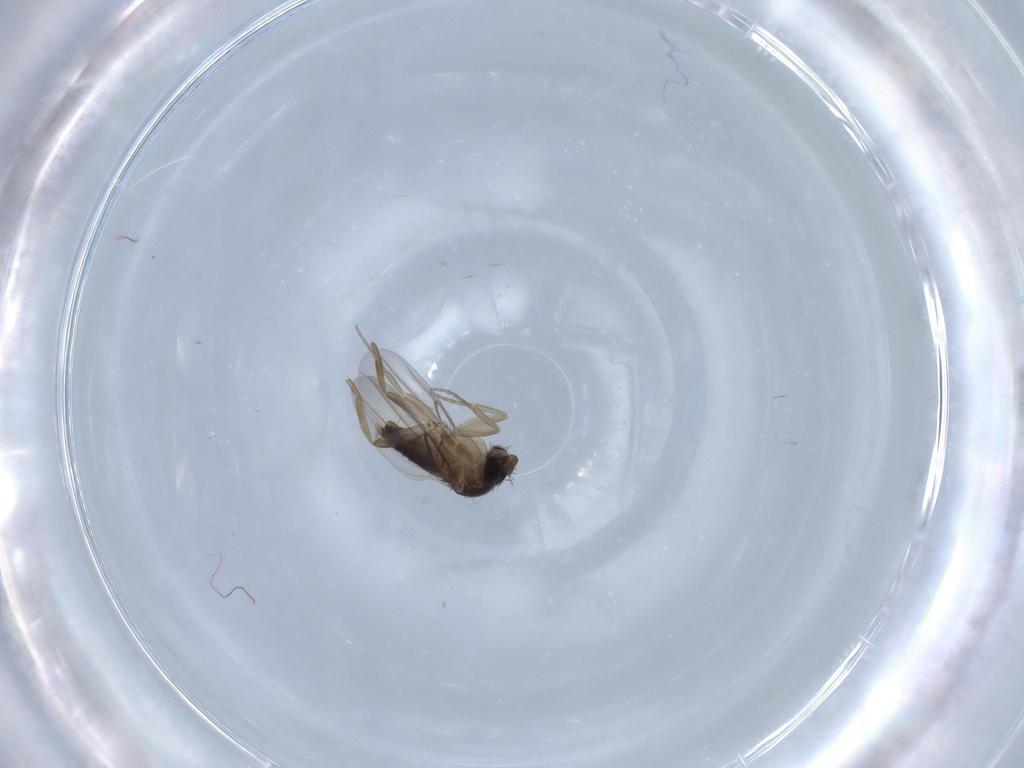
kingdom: Animalia
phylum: Arthropoda
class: Insecta
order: Diptera
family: Phoridae
